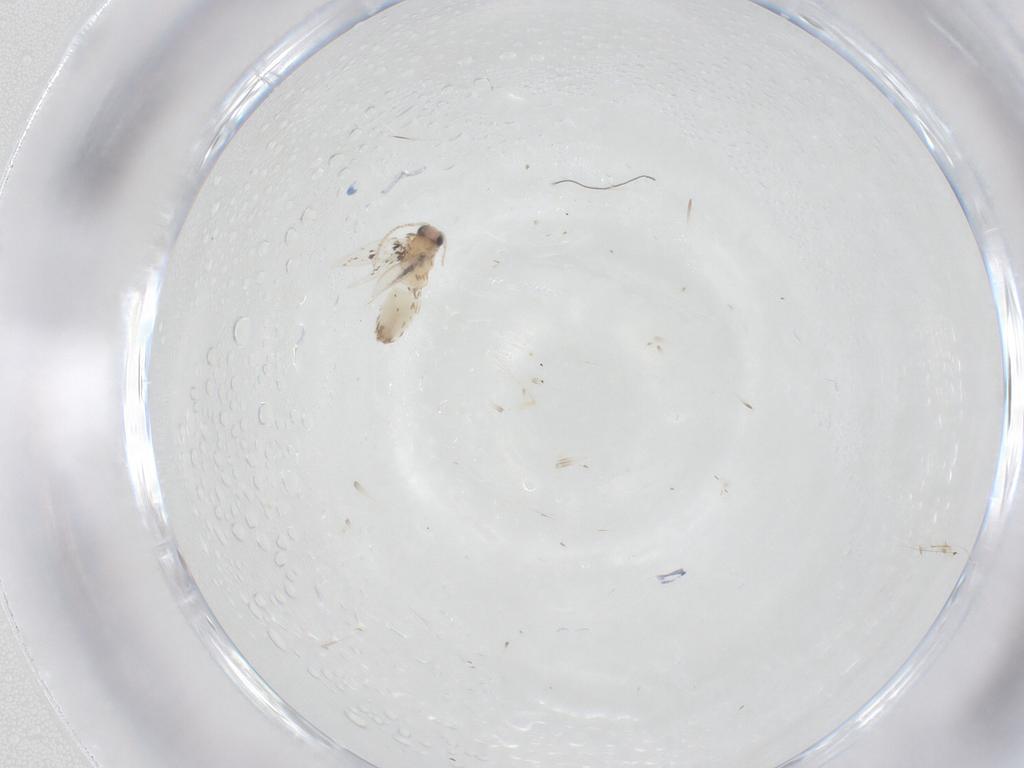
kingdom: Animalia
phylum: Arthropoda
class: Insecta
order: Lepidoptera
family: Nepticulidae
